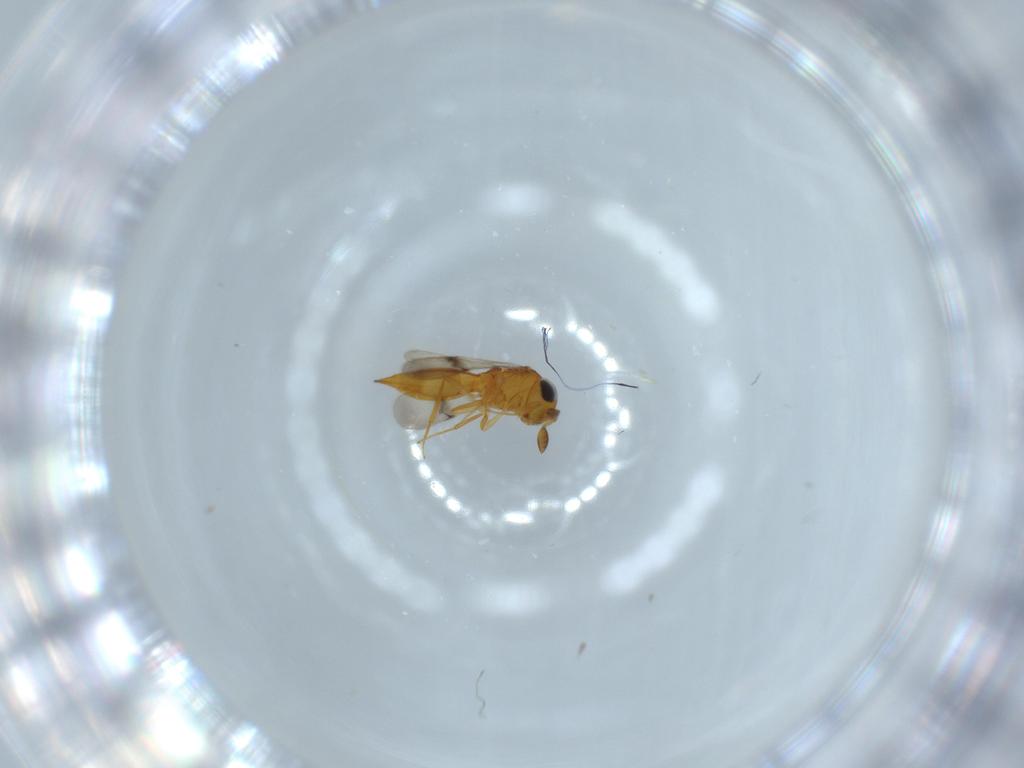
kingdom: Animalia
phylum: Arthropoda
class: Insecta
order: Hymenoptera
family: Scelionidae
